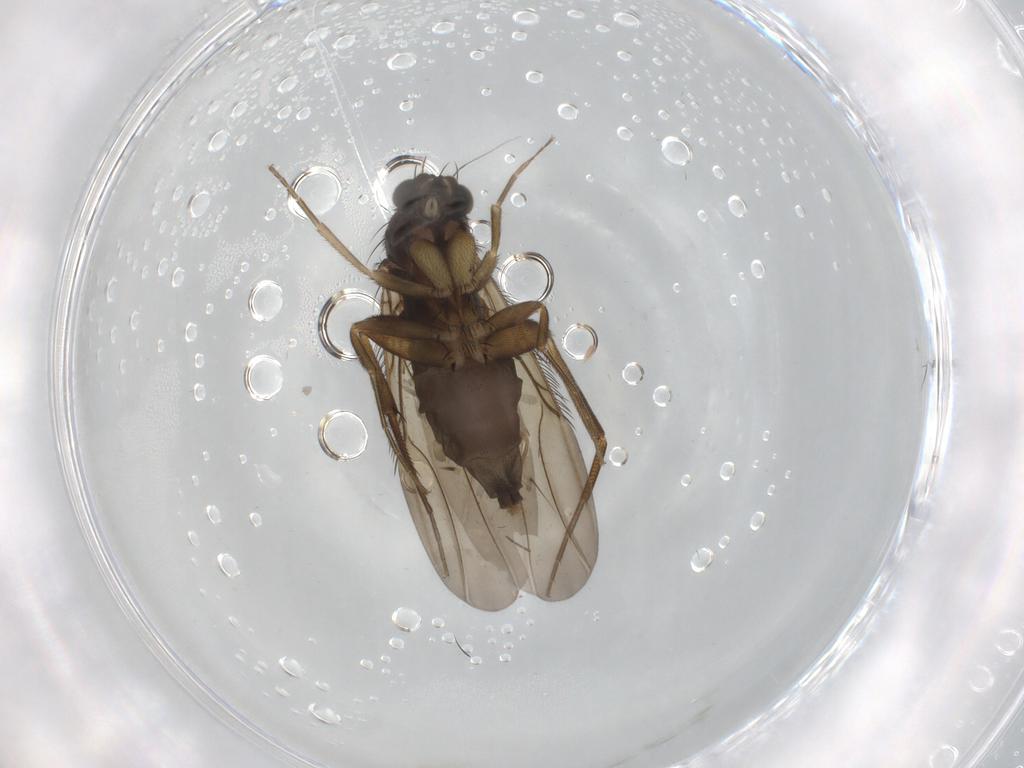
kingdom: Animalia
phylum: Arthropoda
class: Insecta
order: Diptera
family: Phoridae
